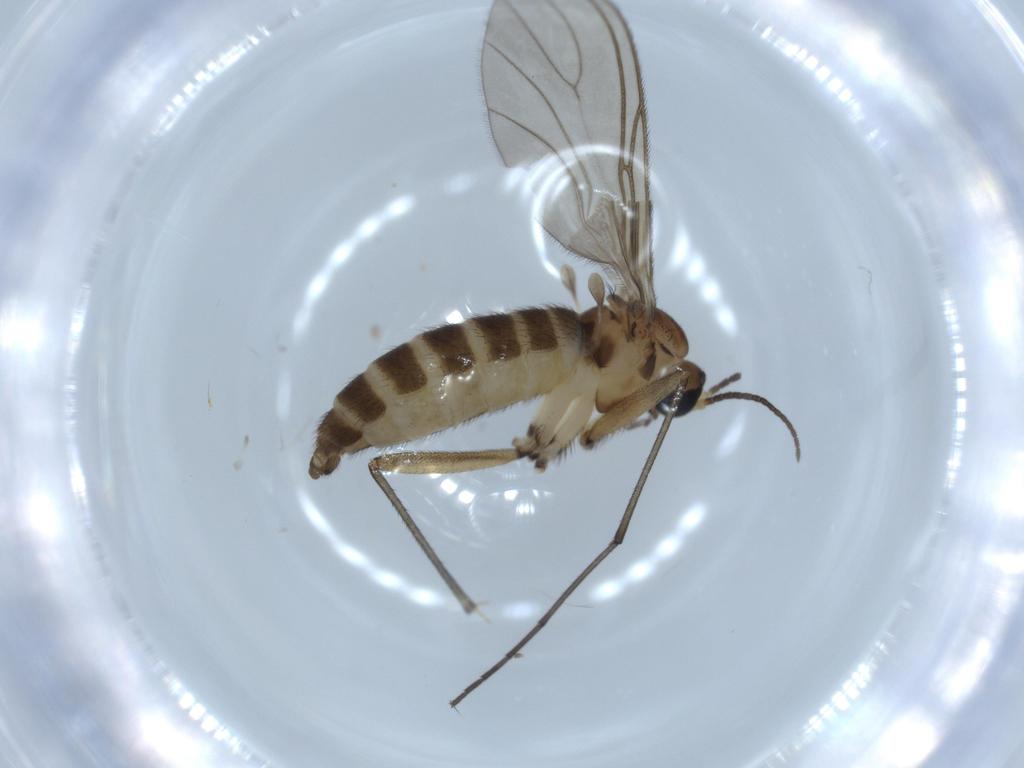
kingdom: Animalia
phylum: Arthropoda
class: Insecta
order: Diptera
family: Sciaridae
